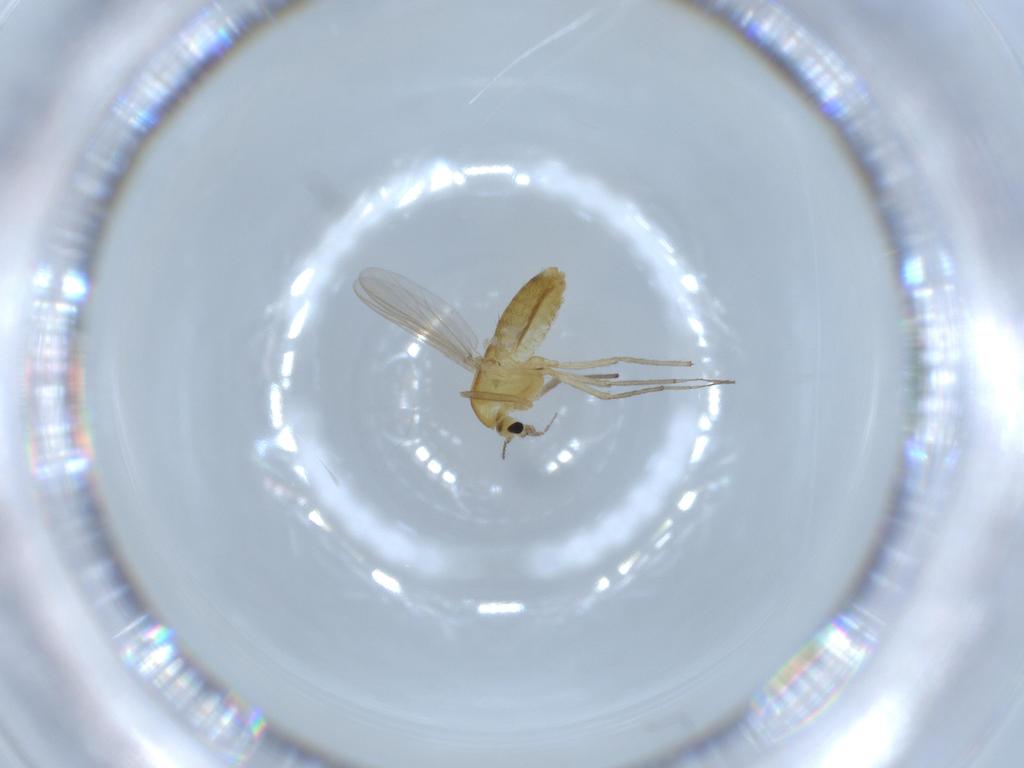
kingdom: Animalia
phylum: Arthropoda
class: Insecta
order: Diptera
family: Chironomidae
